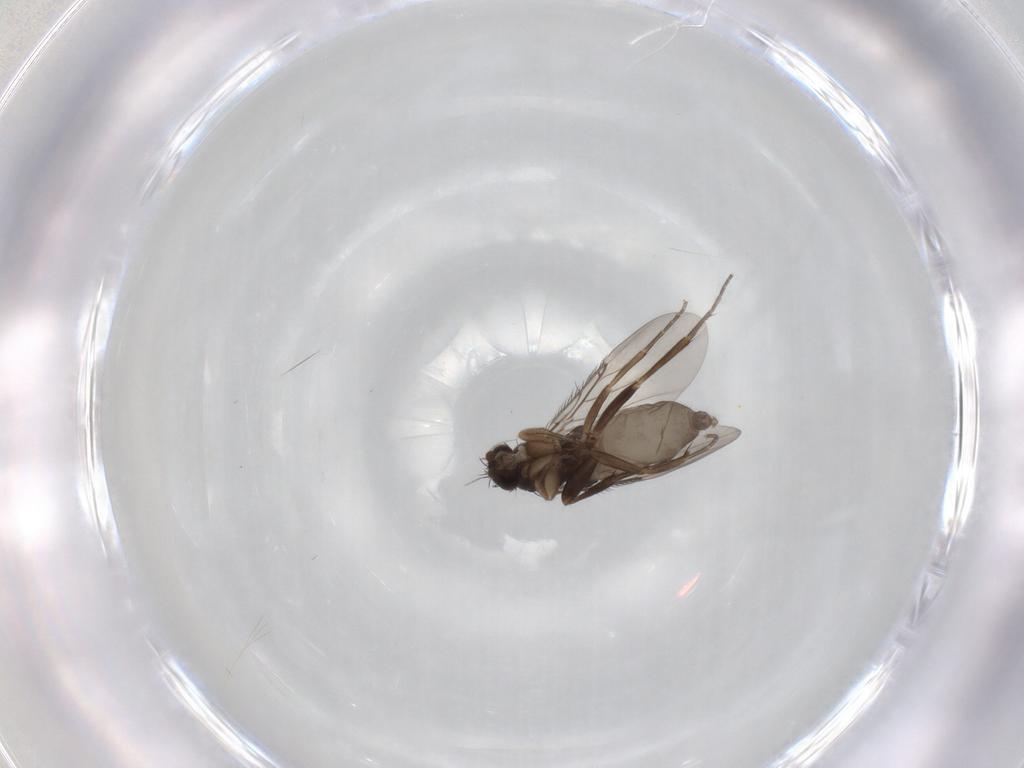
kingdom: Animalia
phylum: Arthropoda
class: Insecta
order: Diptera
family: Phoridae
